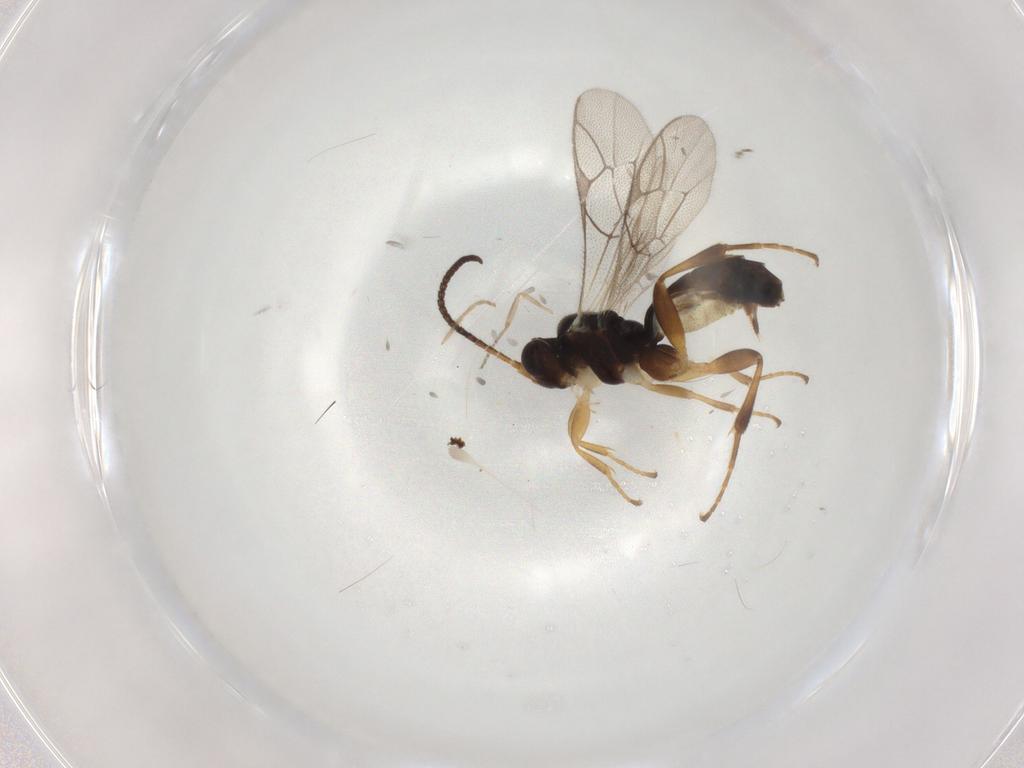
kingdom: Animalia
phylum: Arthropoda
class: Insecta
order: Hymenoptera
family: Ichneumonidae
